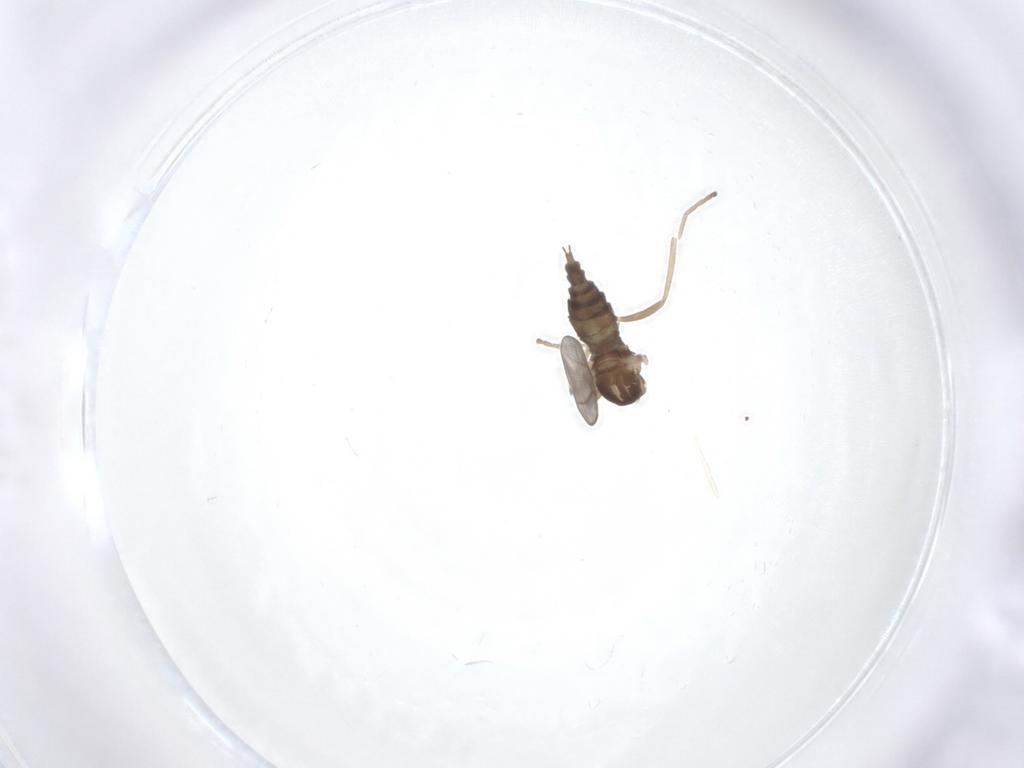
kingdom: Animalia
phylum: Arthropoda
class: Insecta
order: Diptera
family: Cecidomyiidae
